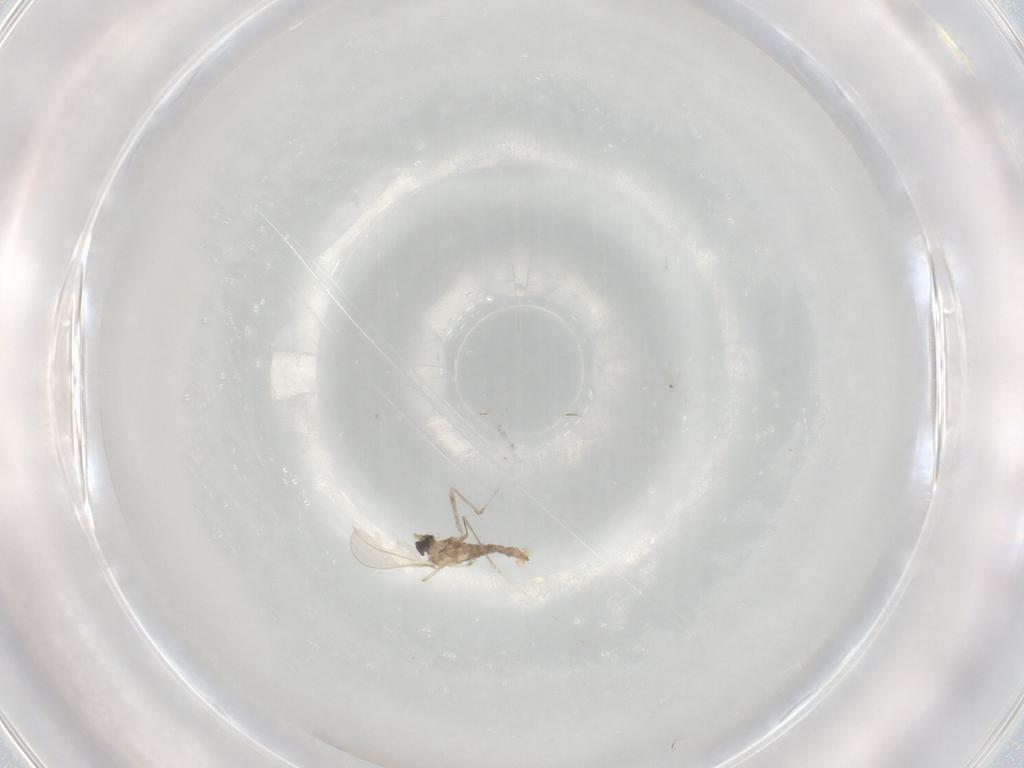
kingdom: Animalia
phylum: Arthropoda
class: Insecta
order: Diptera
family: Cecidomyiidae
